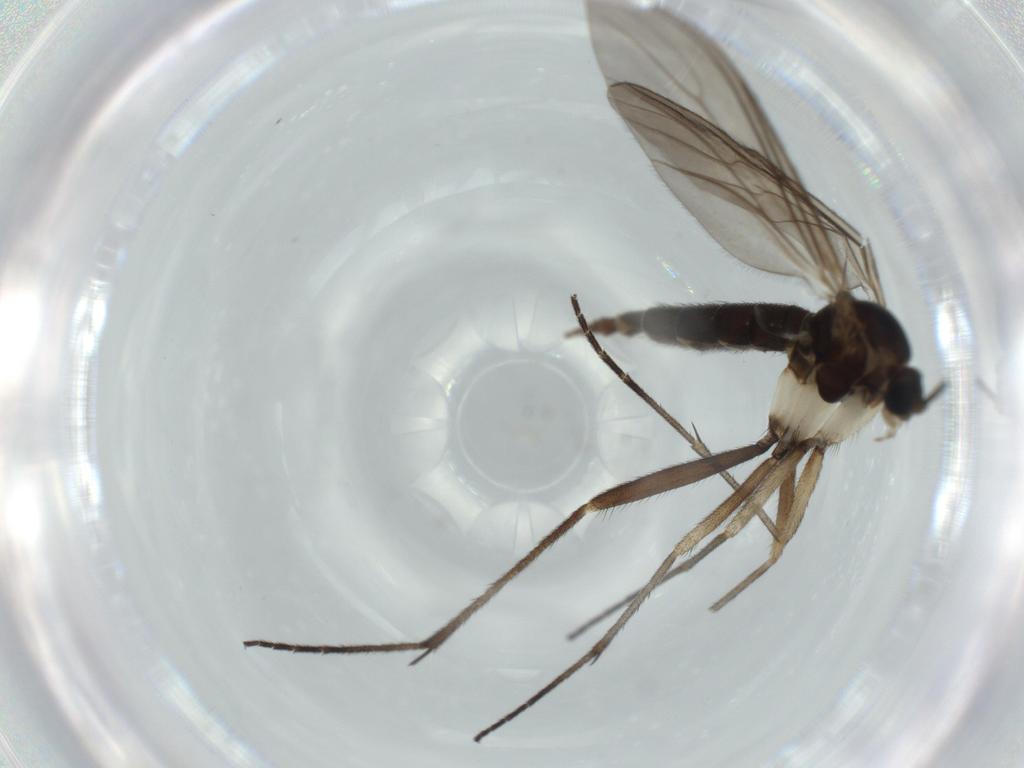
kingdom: Animalia
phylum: Arthropoda
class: Insecta
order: Diptera
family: Sciaridae
